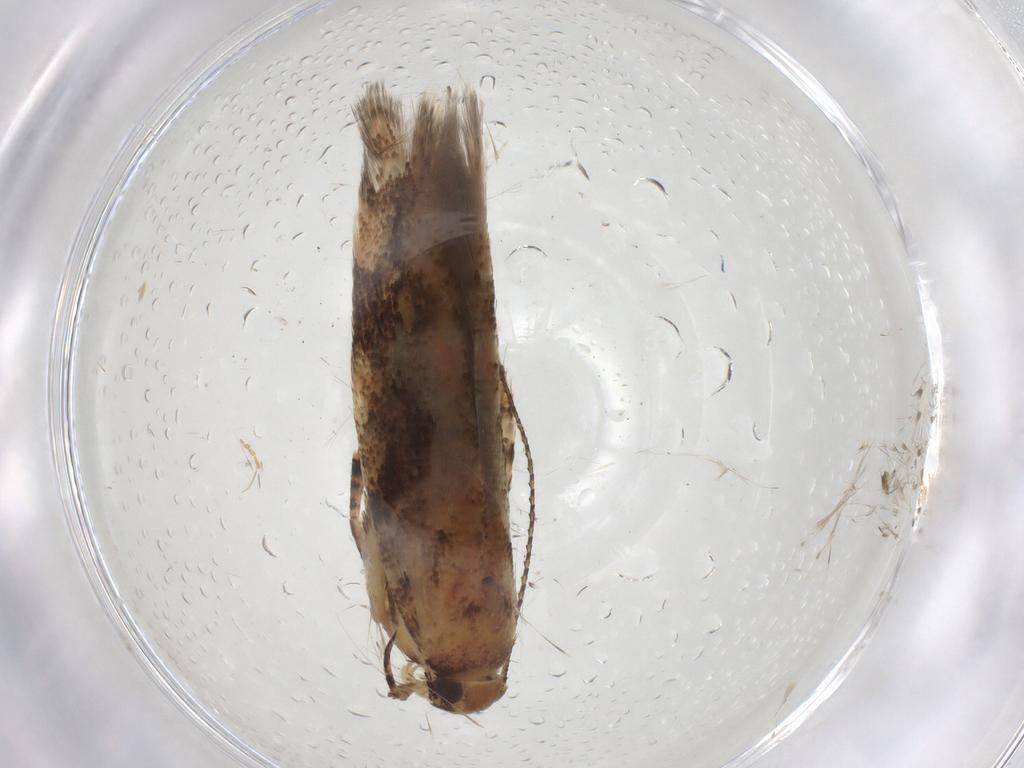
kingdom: Animalia
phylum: Arthropoda
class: Insecta
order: Lepidoptera
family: Gelechiidae
